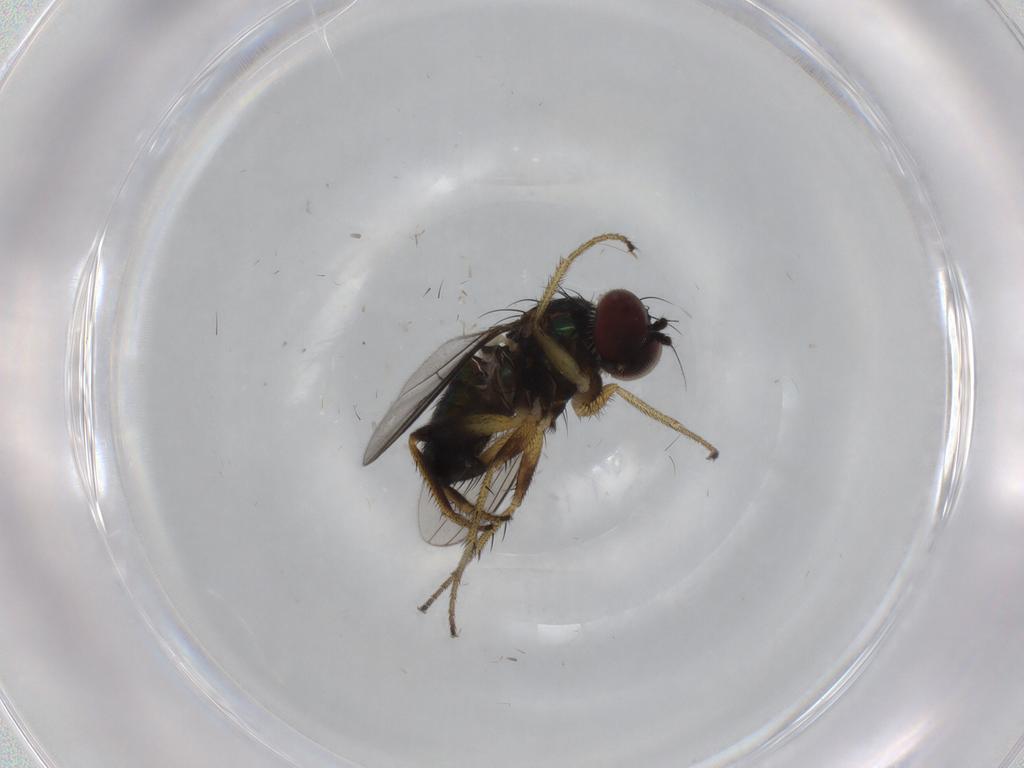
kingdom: Animalia
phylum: Arthropoda
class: Insecta
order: Diptera
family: Dolichopodidae
